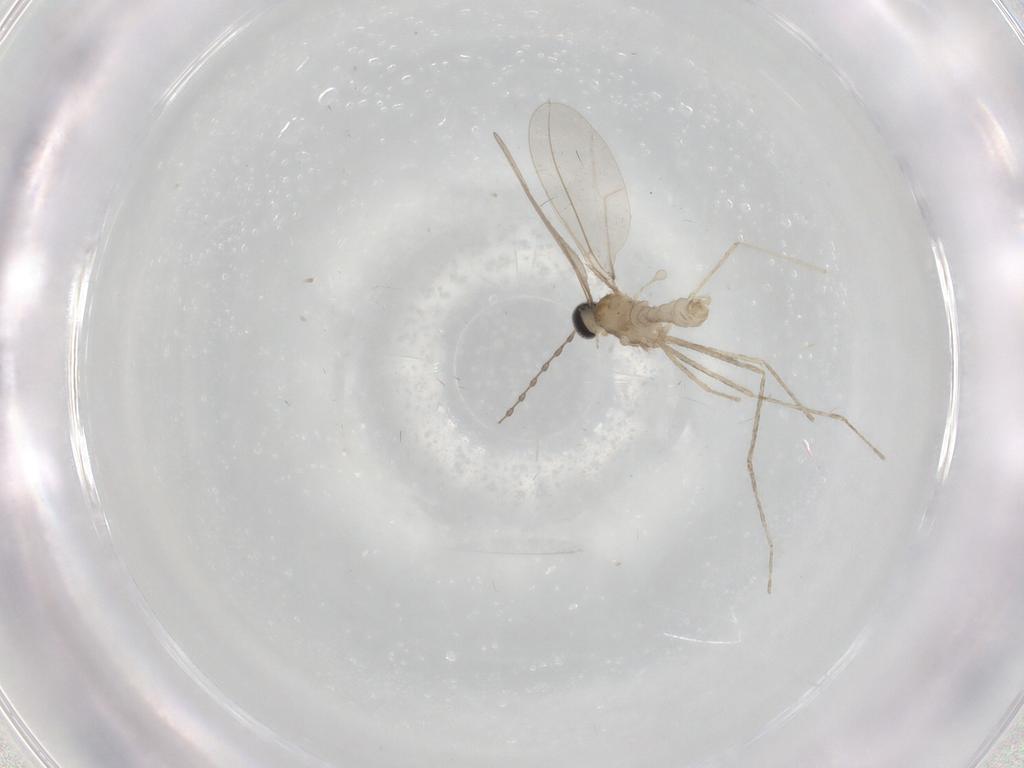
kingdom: Animalia
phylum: Arthropoda
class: Insecta
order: Diptera
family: Cecidomyiidae
